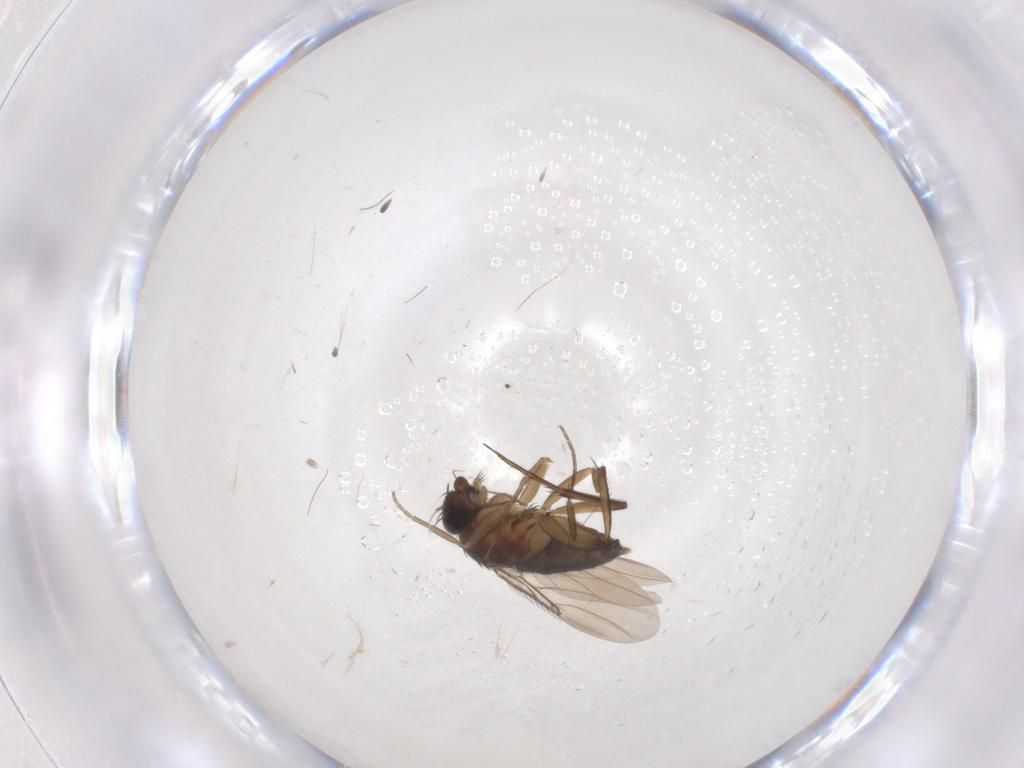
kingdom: Animalia
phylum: Arthropoda
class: Insecta
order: Diptera
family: Phoridae
